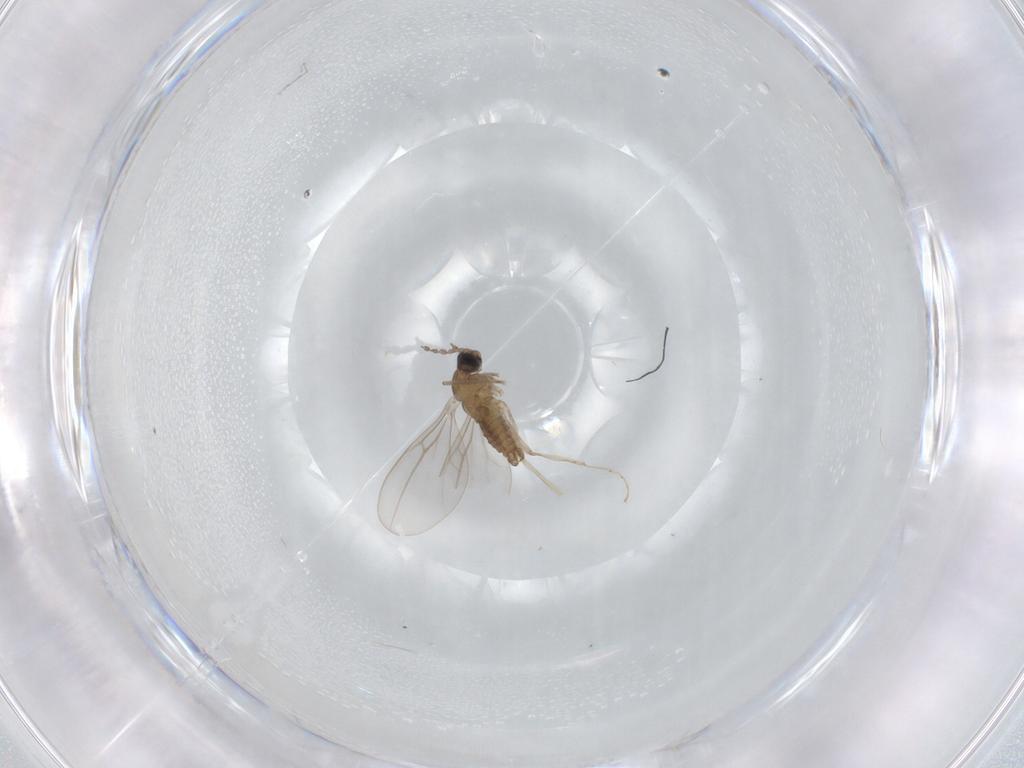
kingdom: Animalia
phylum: Arthropoda
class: Insecta
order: Diptera
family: Cecidomyiidae
